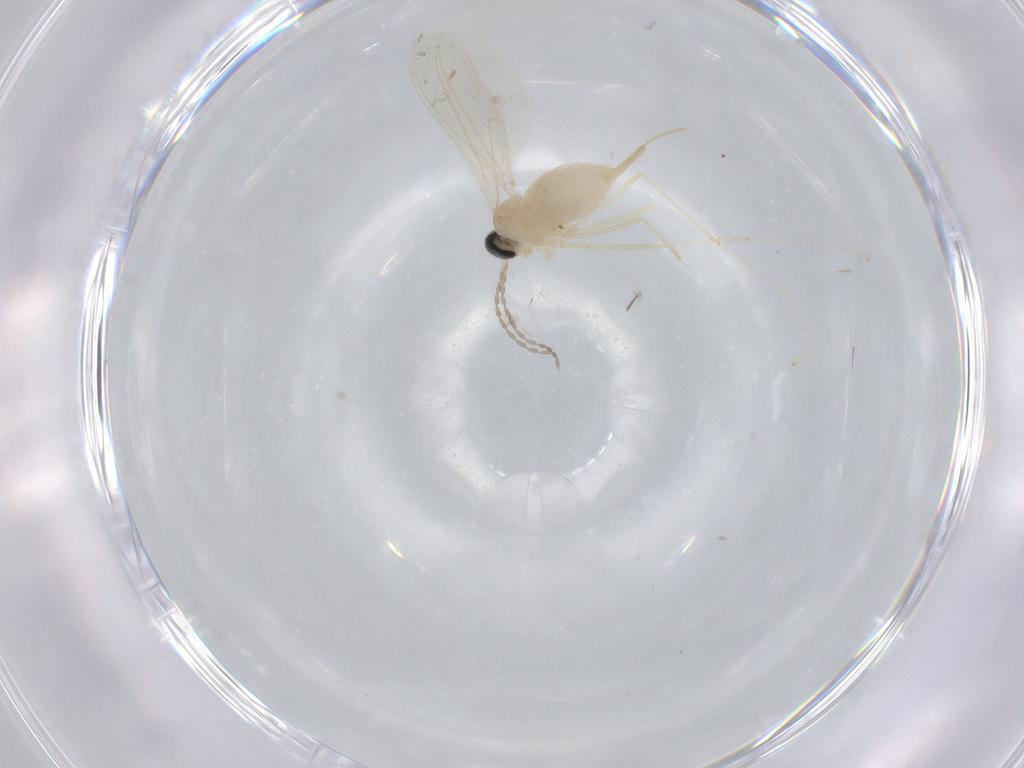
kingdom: Animalia
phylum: Arthropoda
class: Insecta
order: Diptera
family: Cecidomyiidae
